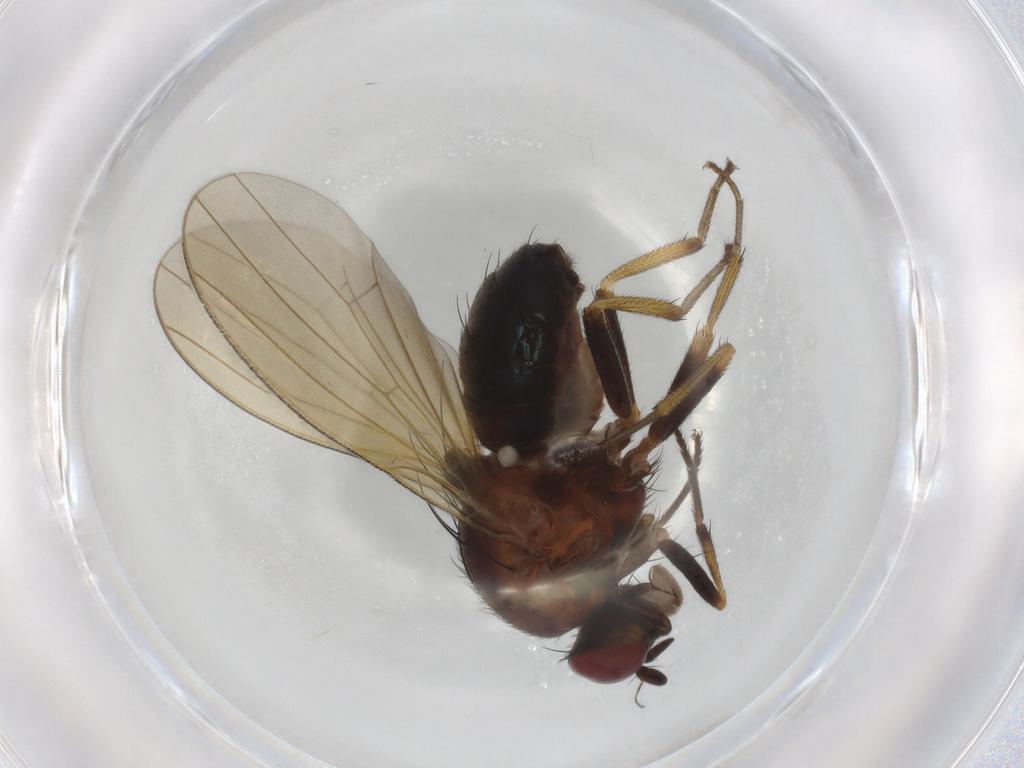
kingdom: Animalia
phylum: Arthropoda
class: Insecta
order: Diptera
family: Lauxaniidae
